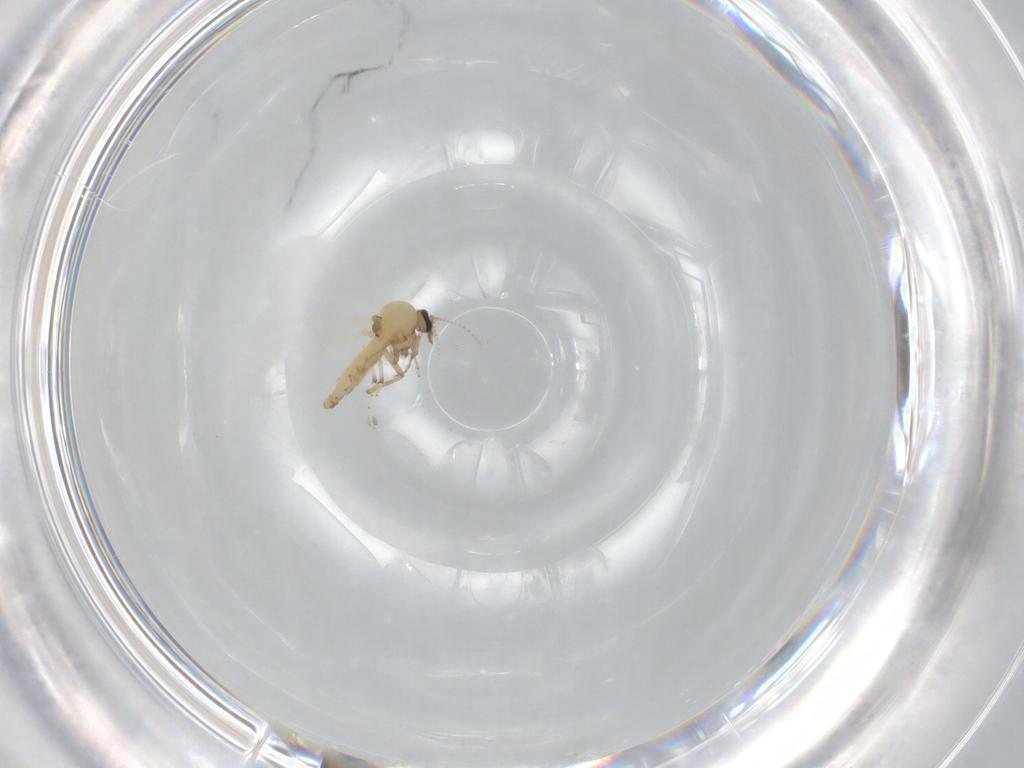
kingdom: Animalia
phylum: Arthropoda
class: Insecta
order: Diptera
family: Ceratopogonidae
